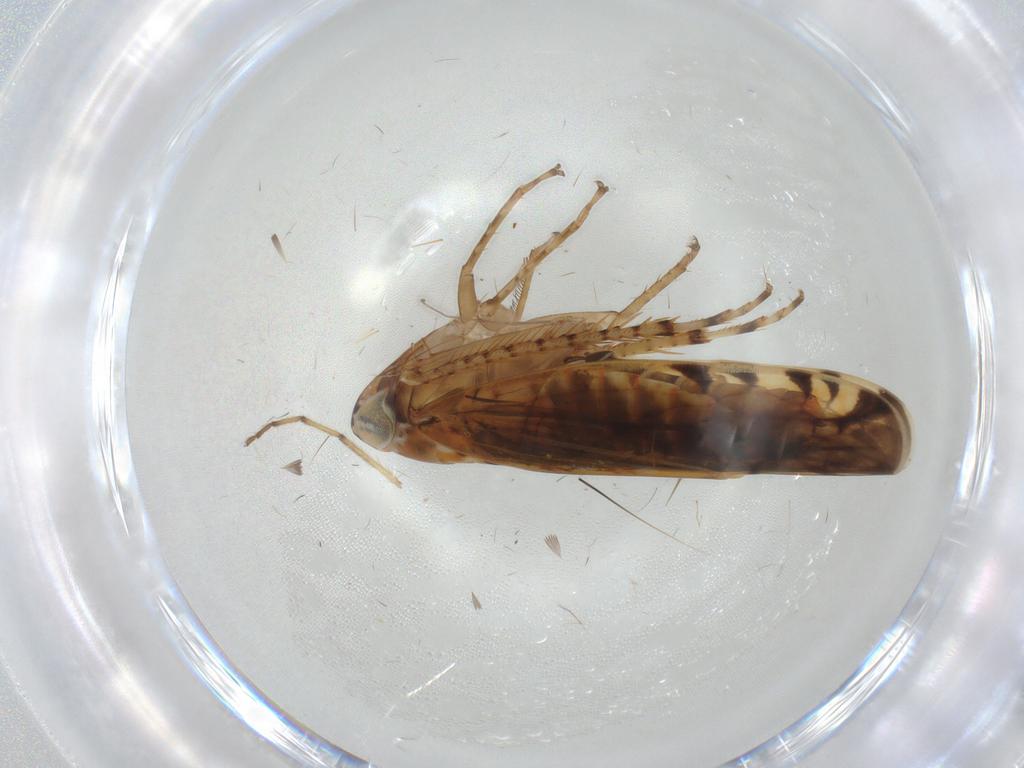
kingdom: Animalia
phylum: Arthropoda
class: Insecta
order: Hemiptera
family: Cicadellidae
